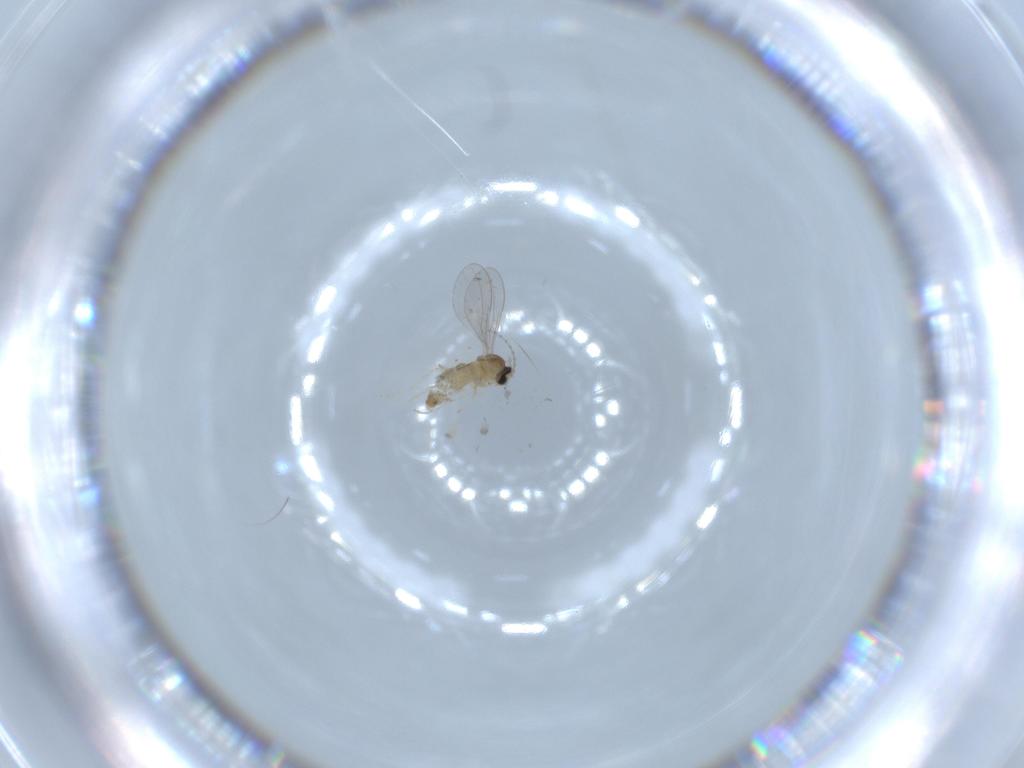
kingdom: Animalia
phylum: Arthropoda
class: Insecta
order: Diptera
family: Cecidomyiidae
